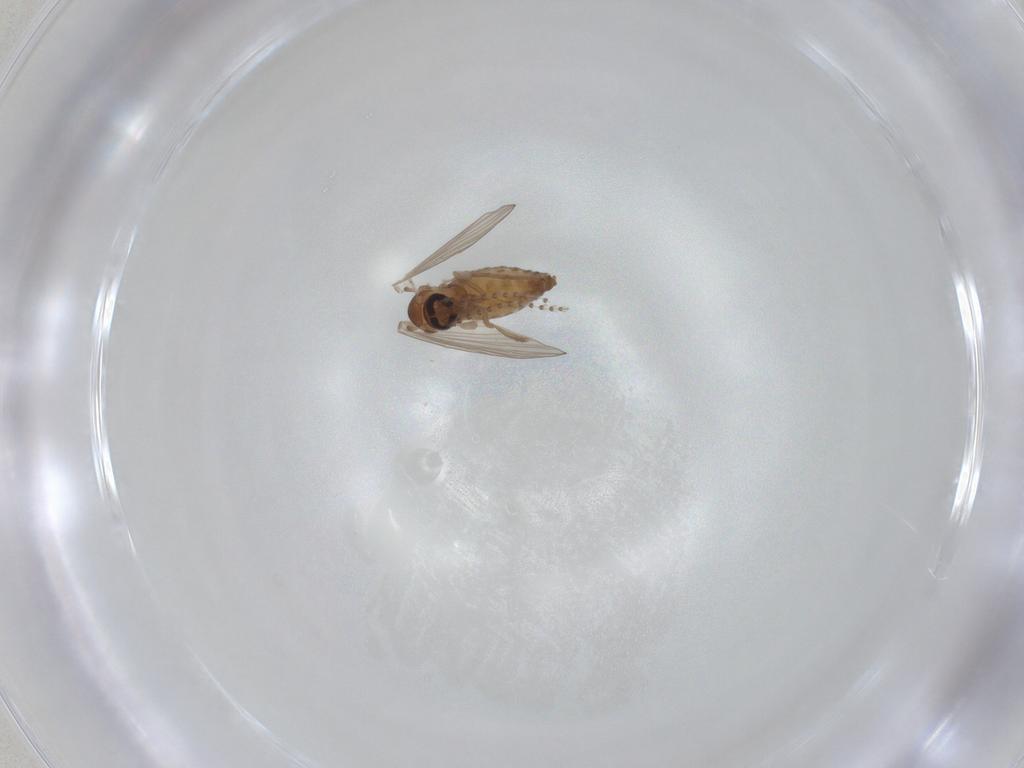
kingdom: Animalia
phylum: Arthropoda
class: Insecta
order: Diptera
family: Psychodidae
